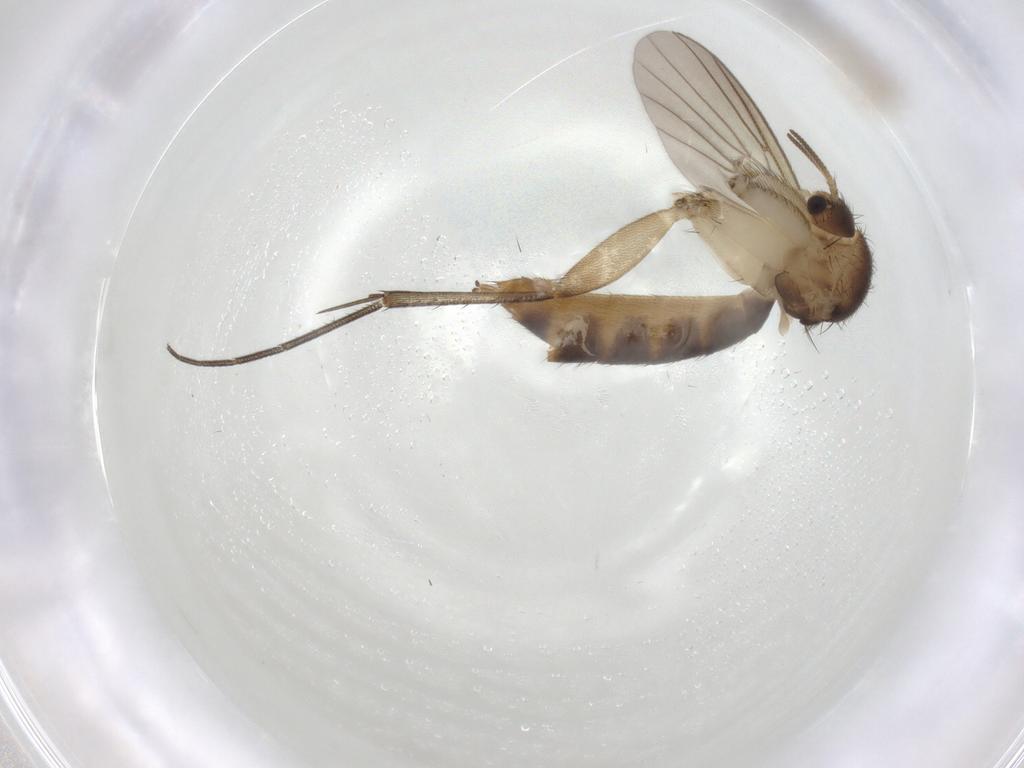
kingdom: Animalia
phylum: Arthropoda
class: Insecta
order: Diptera
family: Mycetophilidae
